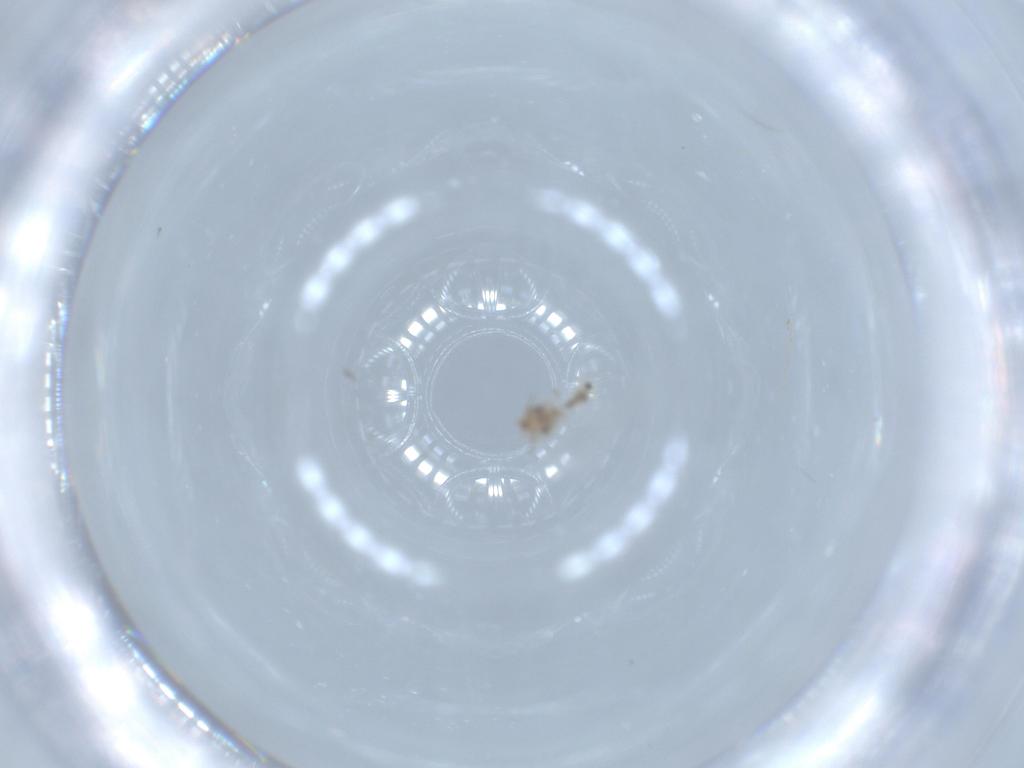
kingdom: Animalia
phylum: Arthropoda
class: Insecta
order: Psocodea
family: Lepidopsocidae
